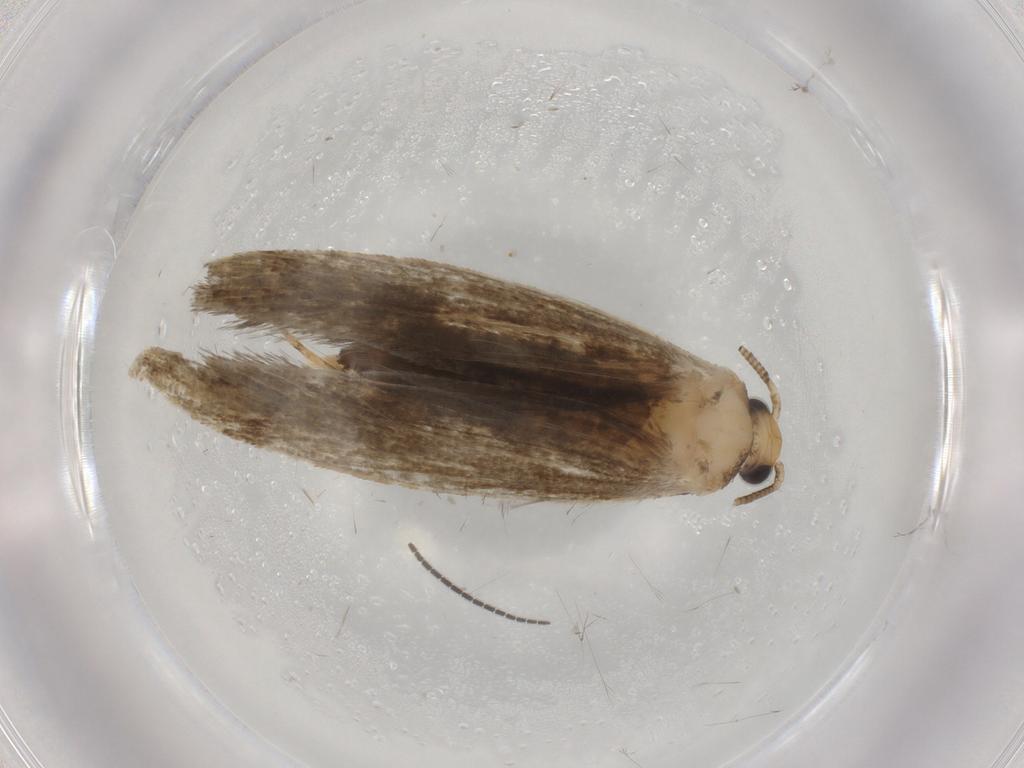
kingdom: Animalia
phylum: Arthropoda
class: Insecta
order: Lepidoptera
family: Tineidae
